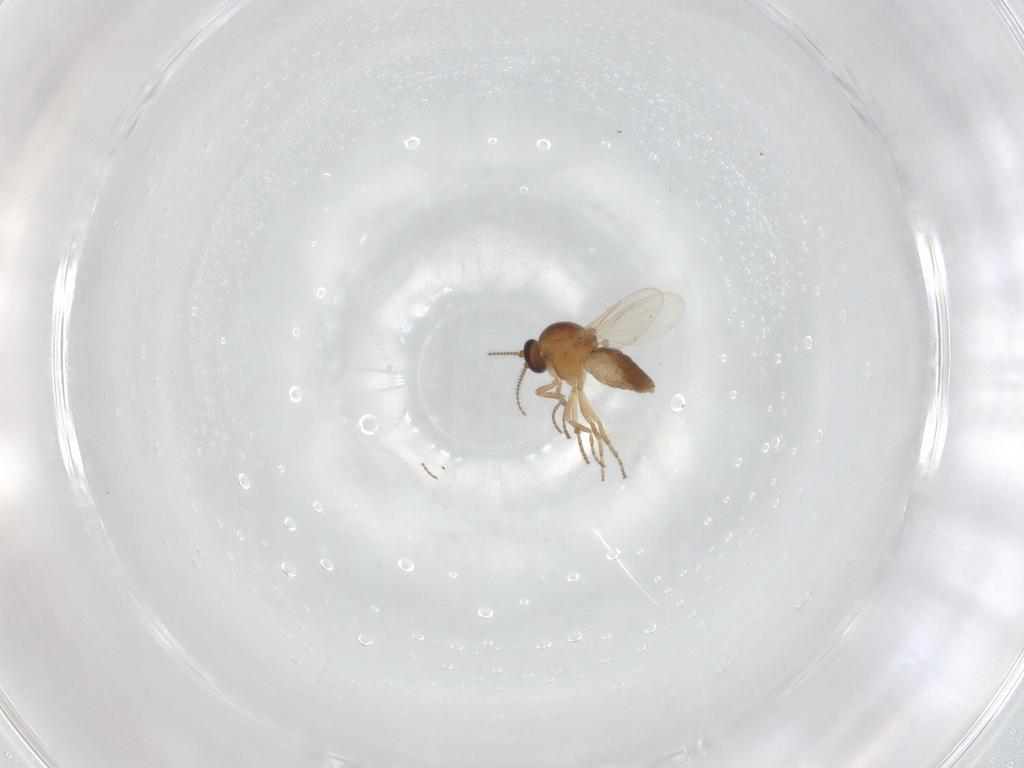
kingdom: Animalia
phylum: Arthropoda
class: Insecta
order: Diptera
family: Ceratopogonidae
